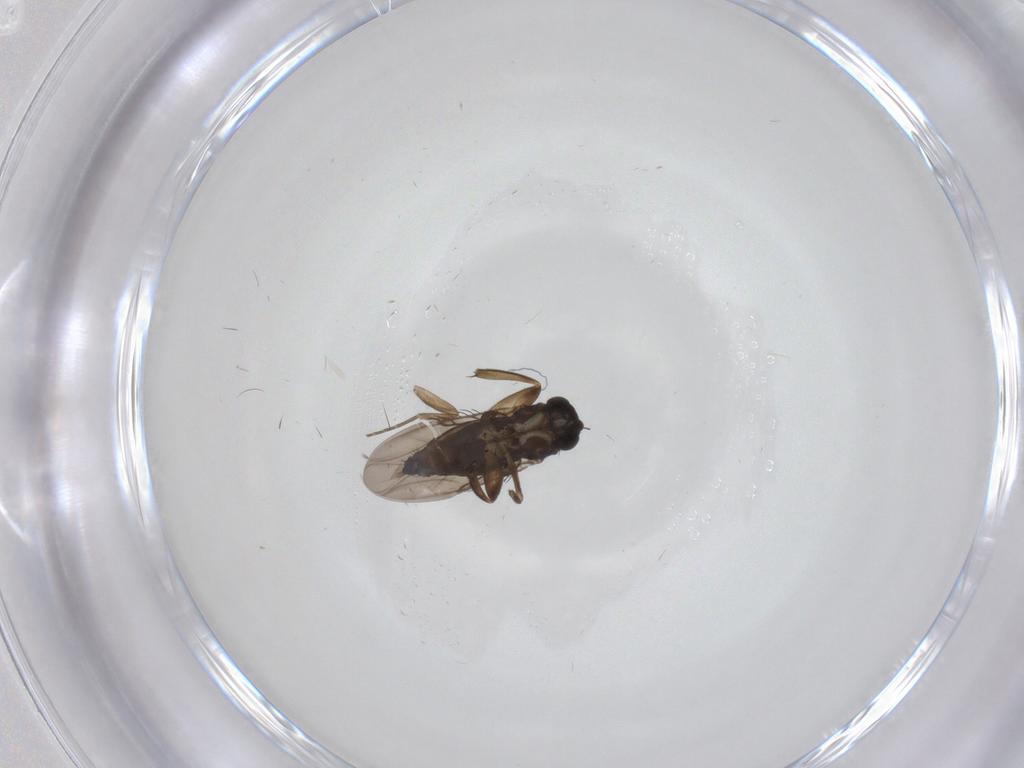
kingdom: Animalia
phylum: Arthropoda
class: Insecta
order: Diptera
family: Phoridae
